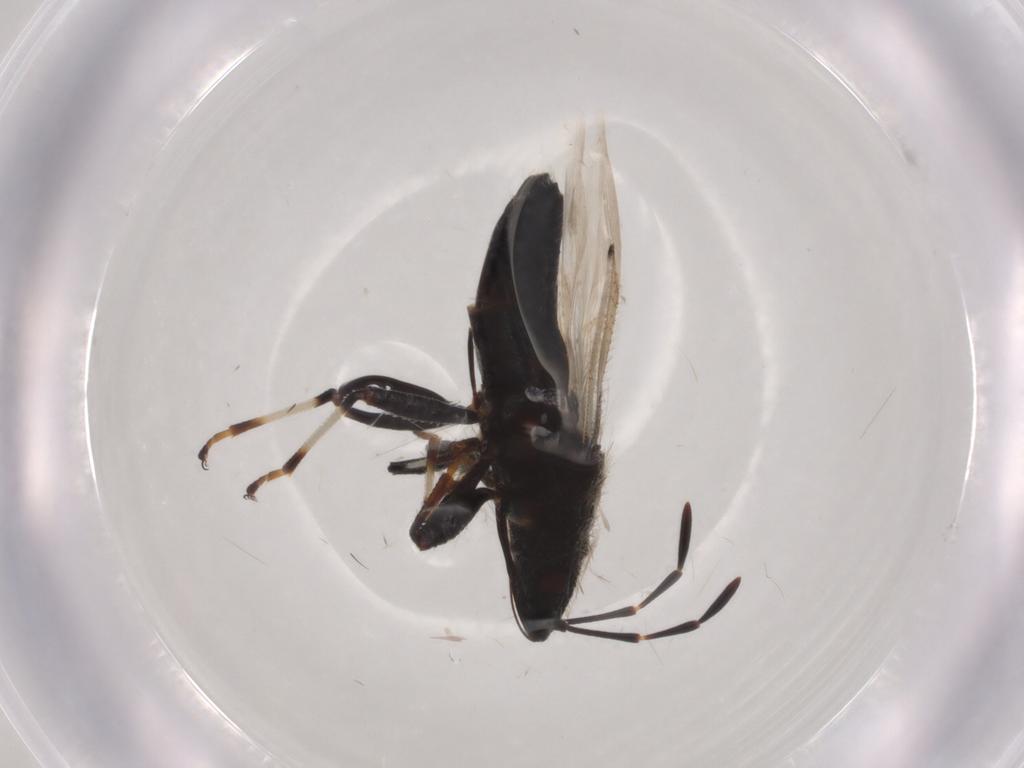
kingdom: Animalia
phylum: Arthropoda
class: Insecta
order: Hemiptera
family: Oxycarenidae
